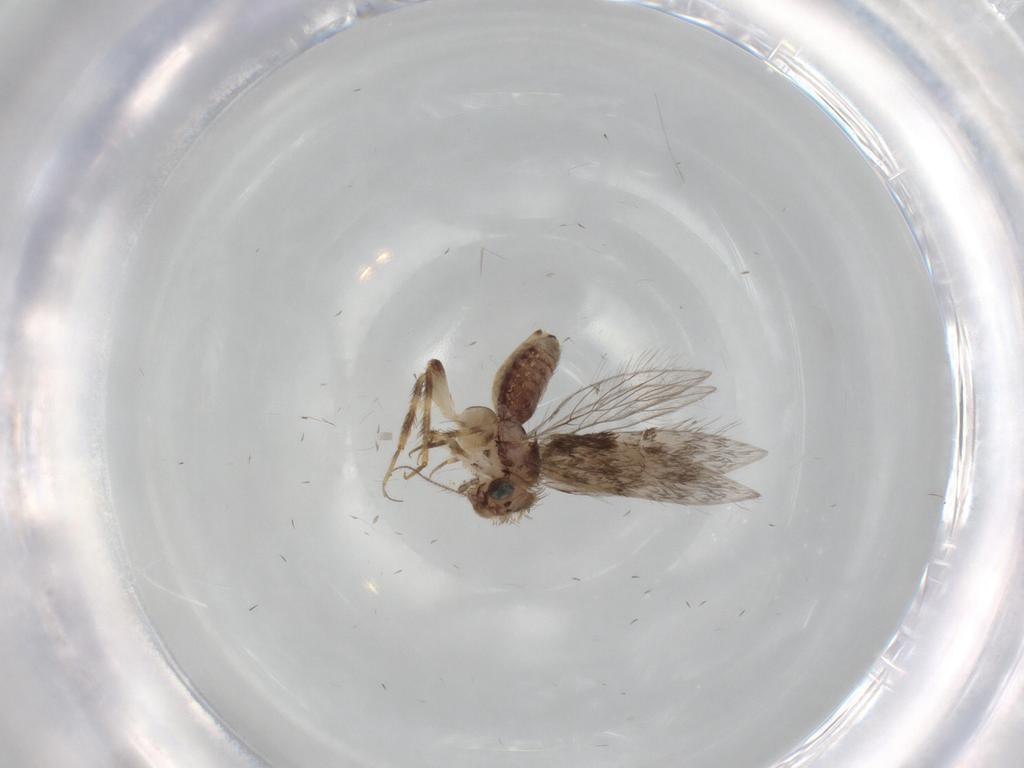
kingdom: Animalia
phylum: Arthropoda
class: Insecta
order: Psocodea
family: Lepidopsocidae
